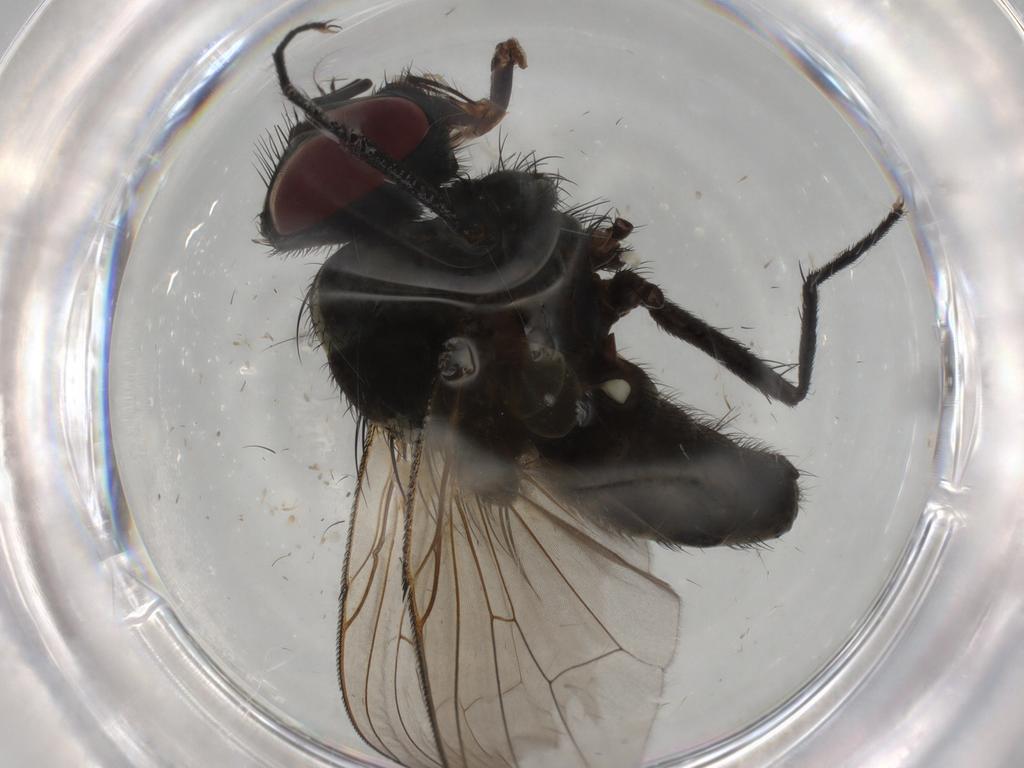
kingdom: Animalia
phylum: Arthropoda
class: Insecta
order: Diptera
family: Muscidae
